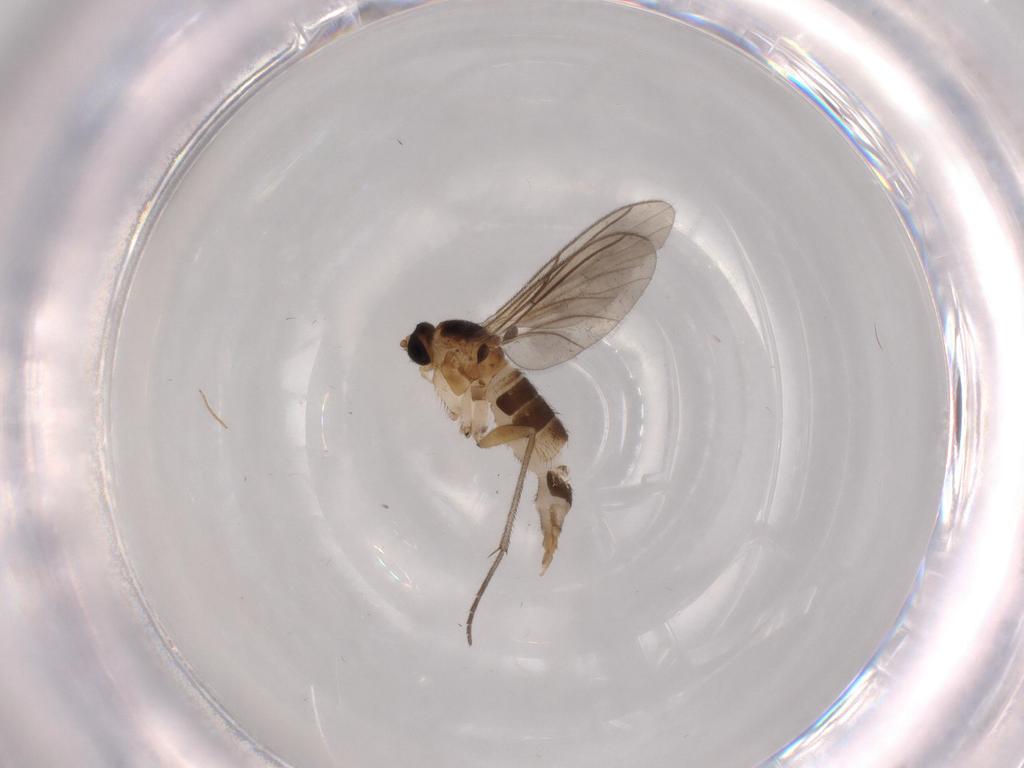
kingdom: Animalia
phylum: Arthropoda
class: Insecta
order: Diptera
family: Sciaridae
